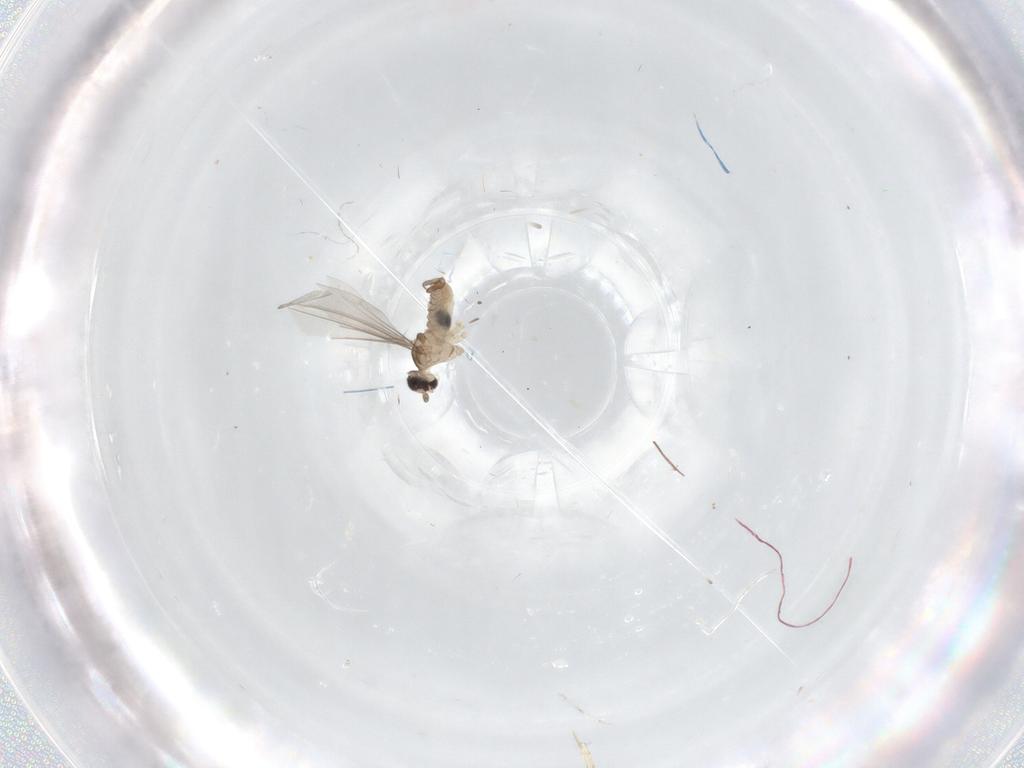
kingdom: Animalia
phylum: Arthropoda
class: Insecta
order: Diptera
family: Cecidomyiidae
